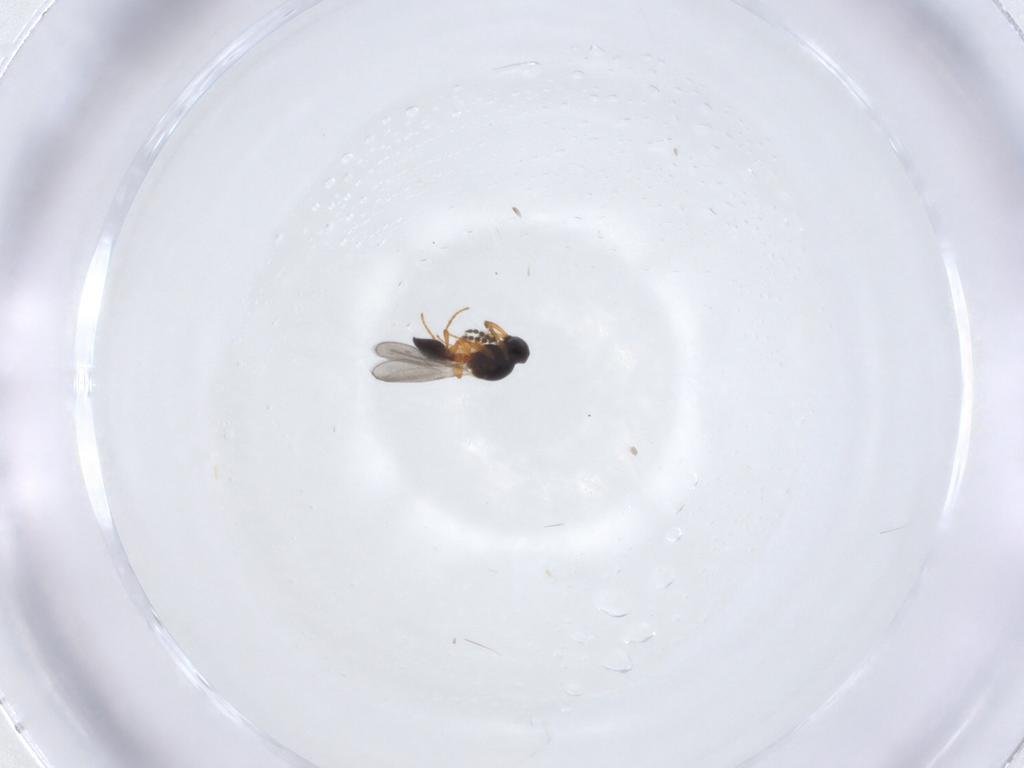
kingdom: Animalia
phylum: Arthropoda
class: Insecta
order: Hymenoptera
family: Platygastridae
